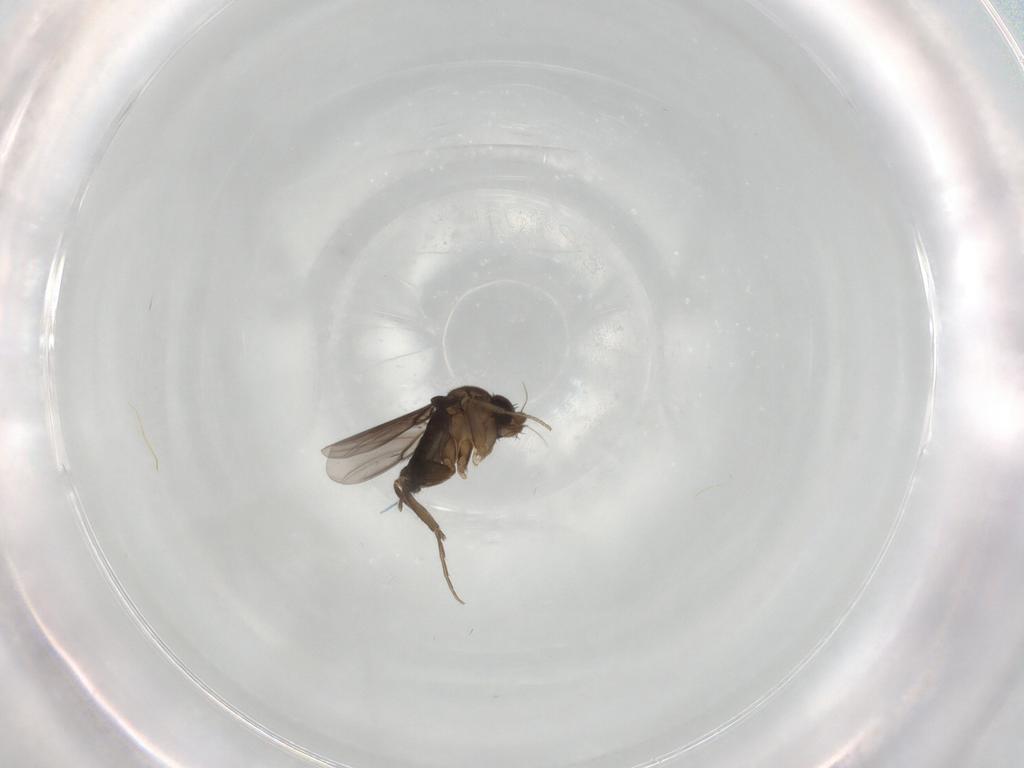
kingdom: Animalia
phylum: Arthropoda
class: Insecta
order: Diptera
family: Phoridae
